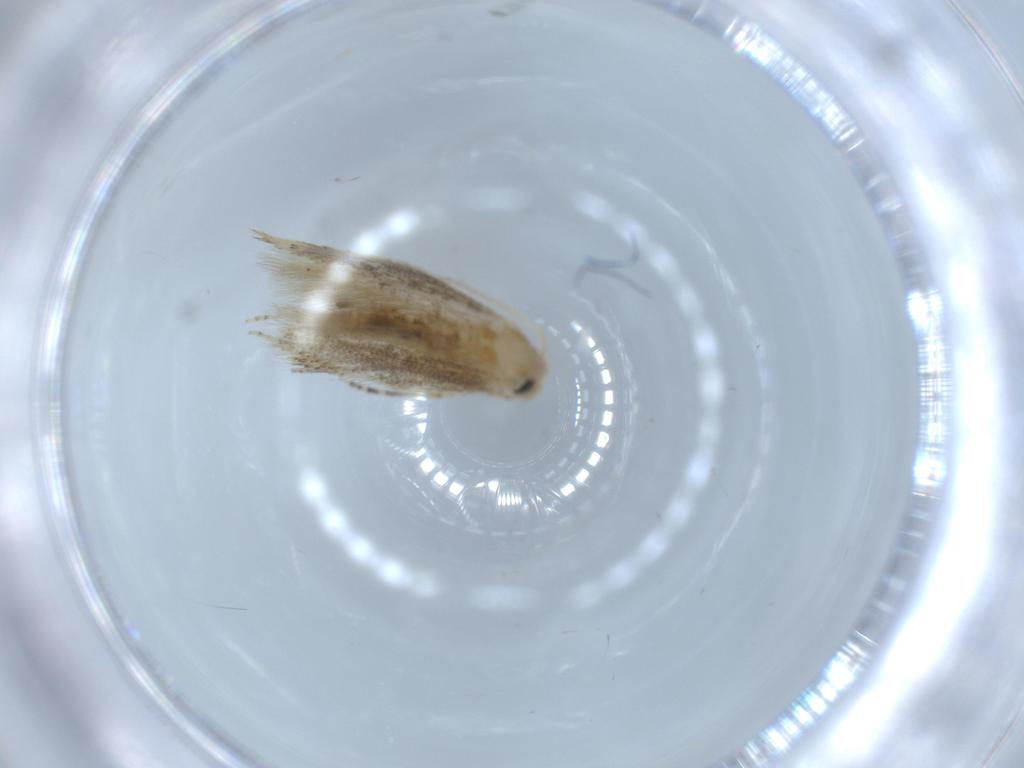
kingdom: Animalia
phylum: Arthropoda
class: Insecta
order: Lepidoptera
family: Bucculatricidae
